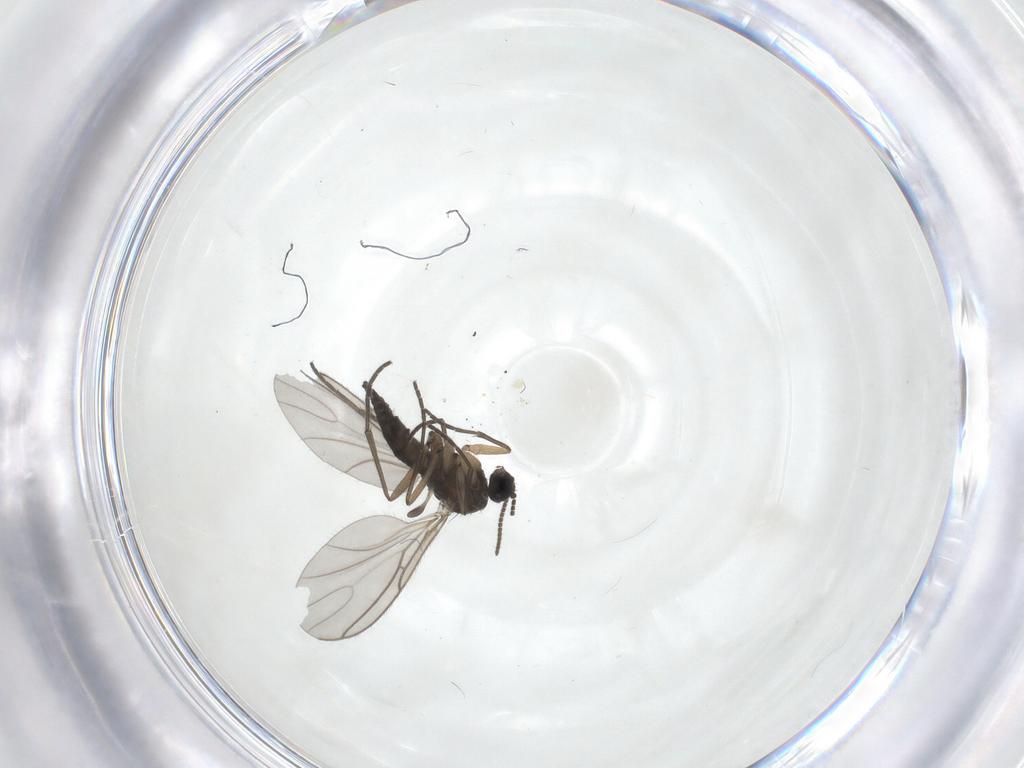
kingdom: Animalia
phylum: Arthropoda
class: Insecta
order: Diptera
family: Sciaridae
